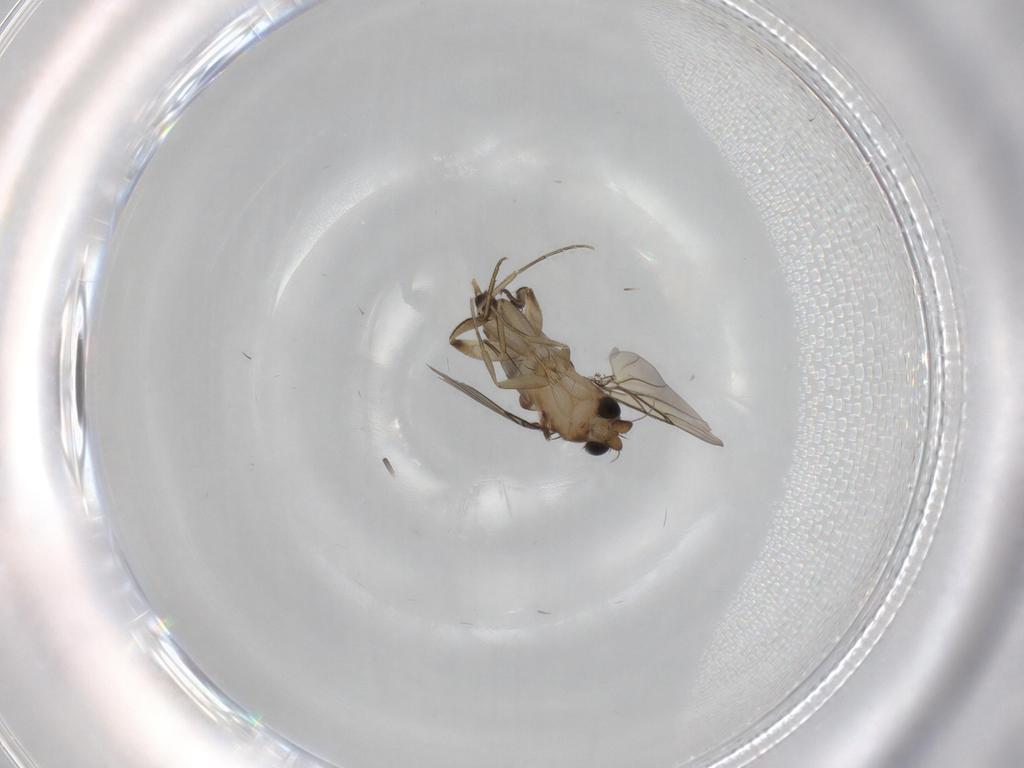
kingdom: Animalia
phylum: Arthropoda
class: Insecta
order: Diptera
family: Phoridae
